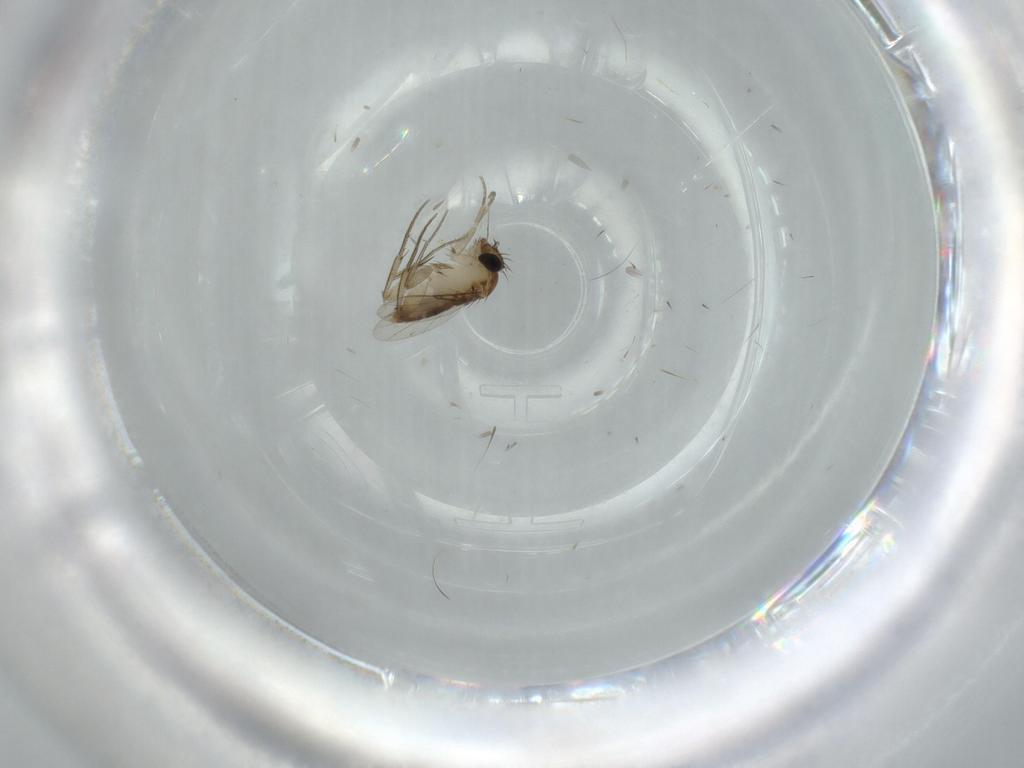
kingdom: Animalia
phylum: Arthropoda
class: Insecta
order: Diptera
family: Phoridae
